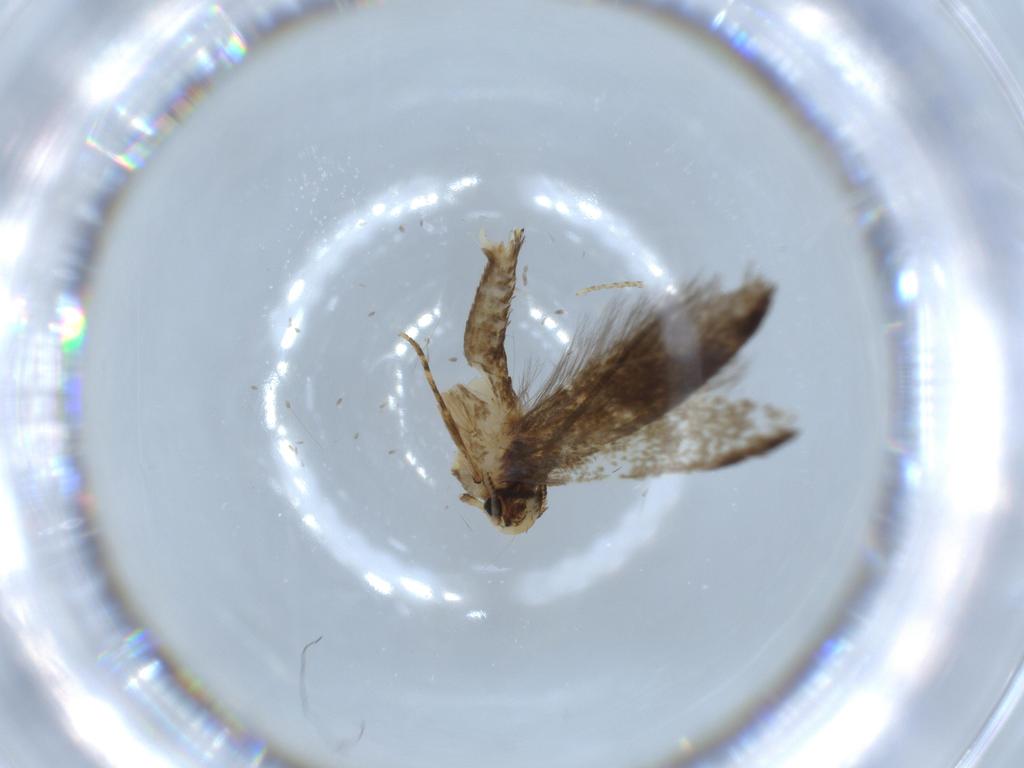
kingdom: Animalia
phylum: Arthropoda
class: Insecta
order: Lepidoptera
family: Tineidae
